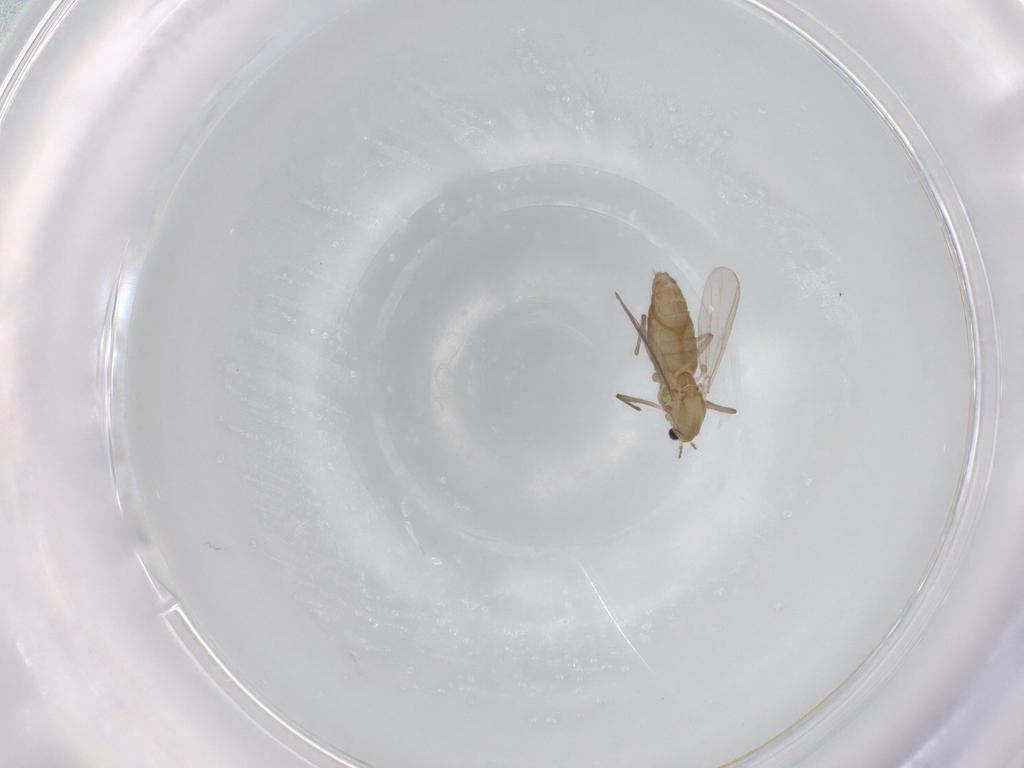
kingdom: Animalia
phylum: Arthropoda
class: Insecta
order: Diptera
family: Chironomidae
